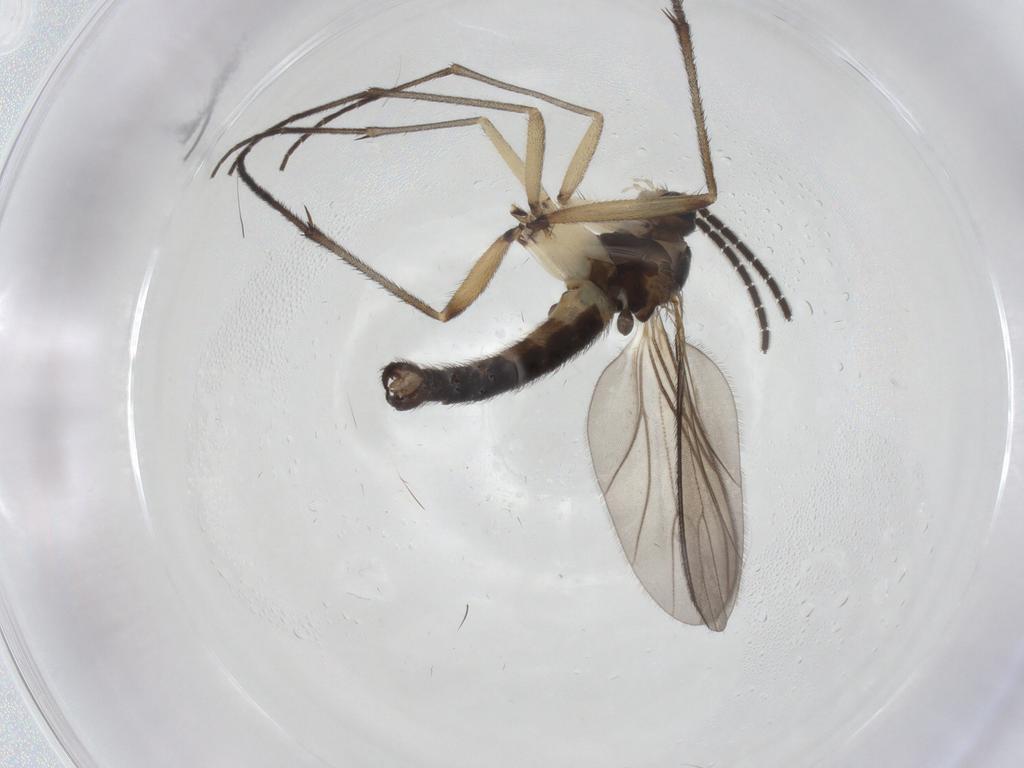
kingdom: Animalia
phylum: Arthropoda
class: Insecta
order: Diptera
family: Sciaridae
